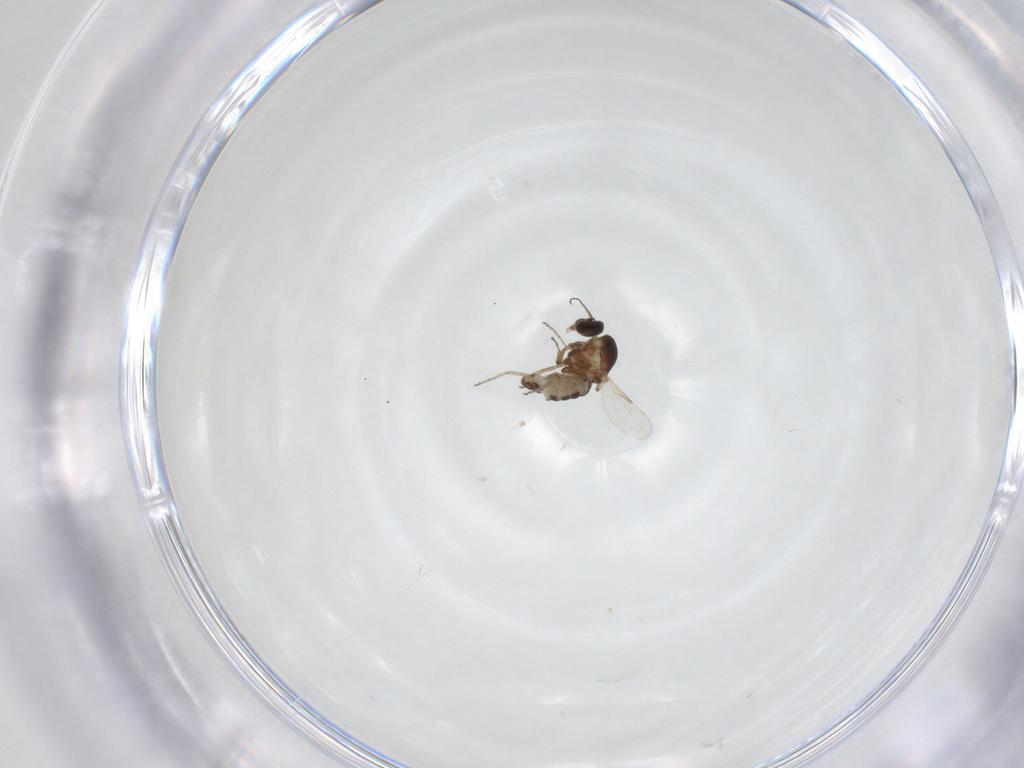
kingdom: Animalia
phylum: Arthropoda
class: Insecta
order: Diptera
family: Ceratopogonidae
